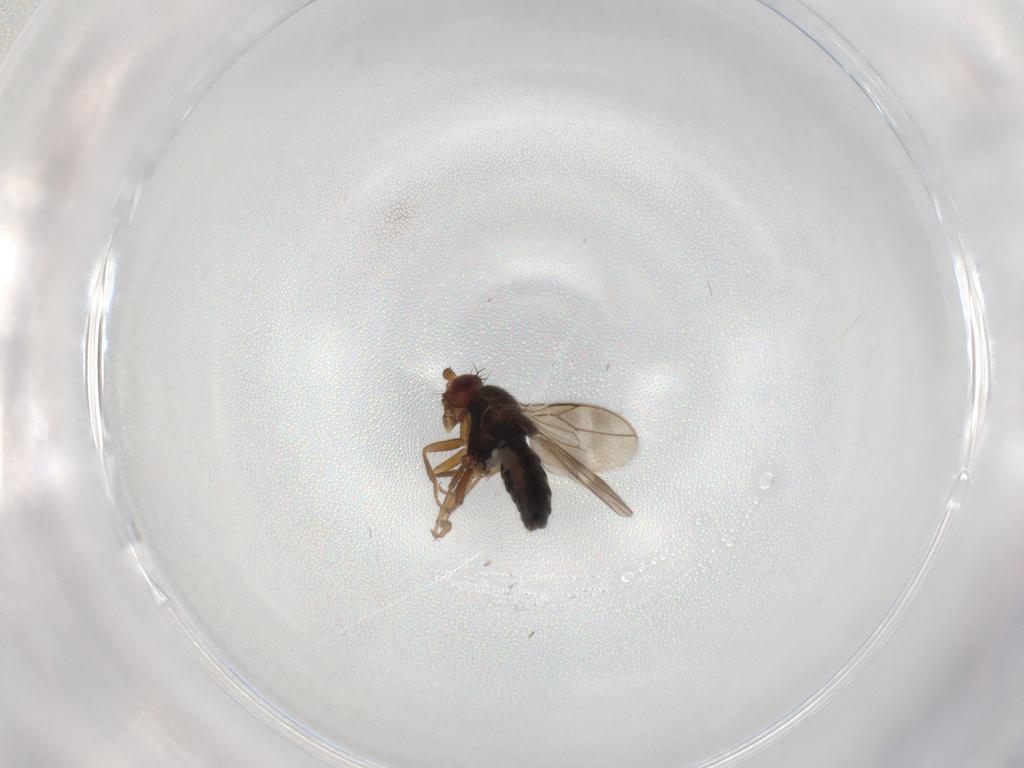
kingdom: Animalia
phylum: Arthropoda
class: Insecta
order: Diptera
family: Sphaeroceridae
